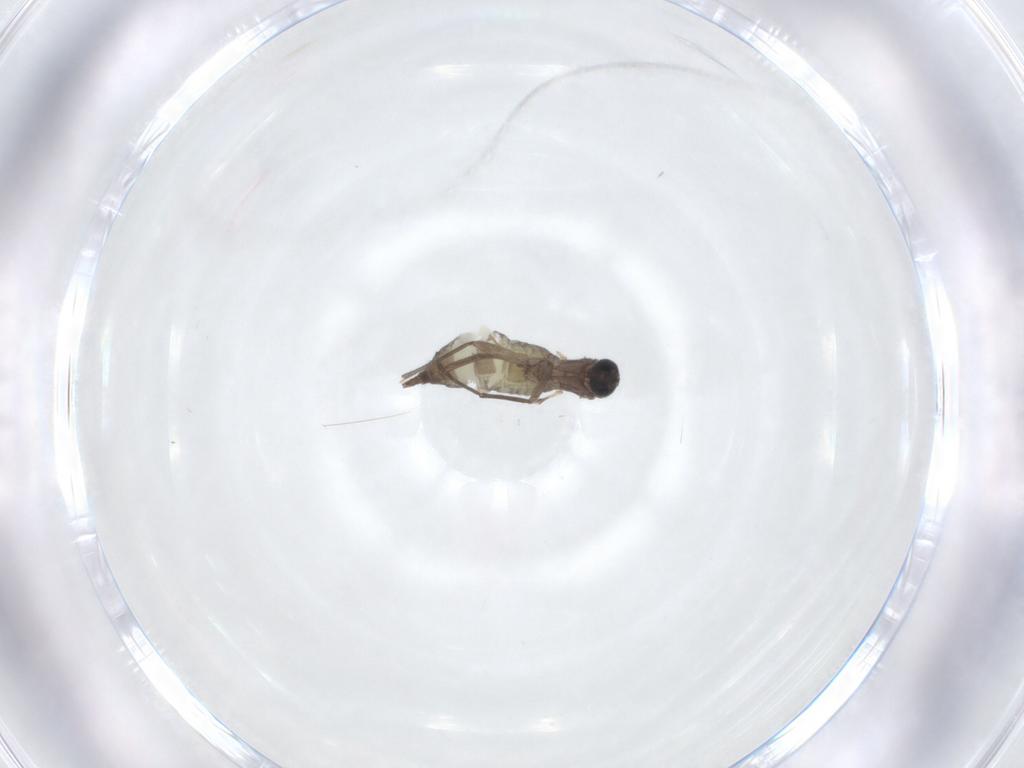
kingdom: Animalia
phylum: Arthropoda
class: Insecta
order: Diptera
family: Sciaridae
